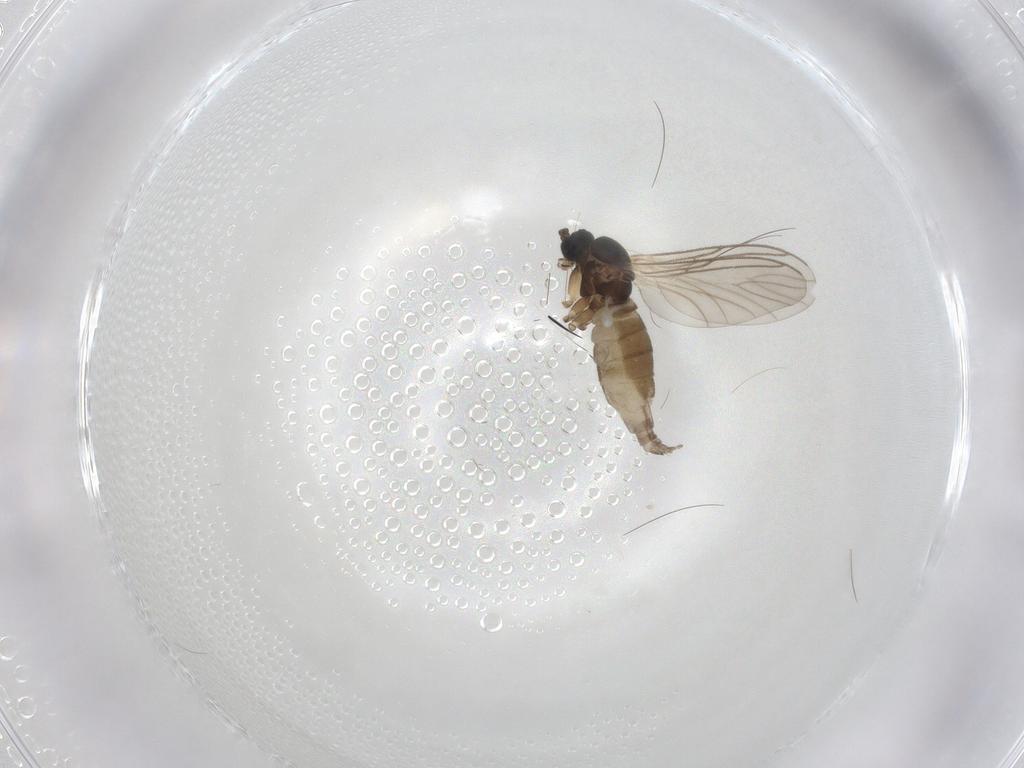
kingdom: Animalia
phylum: Arthropoda
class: Insecta
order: Diptera
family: Sciaridae
